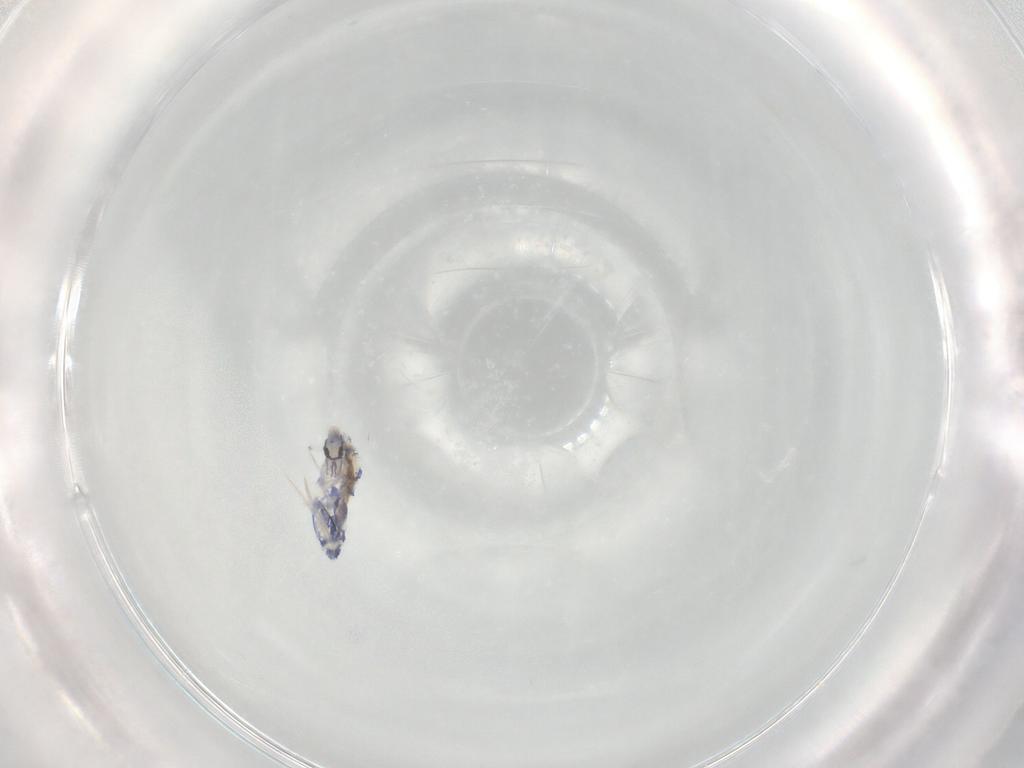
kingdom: Animalia
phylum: Arthropoda
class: Collembola
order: Entomobryomorpha
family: Entomobryidae
